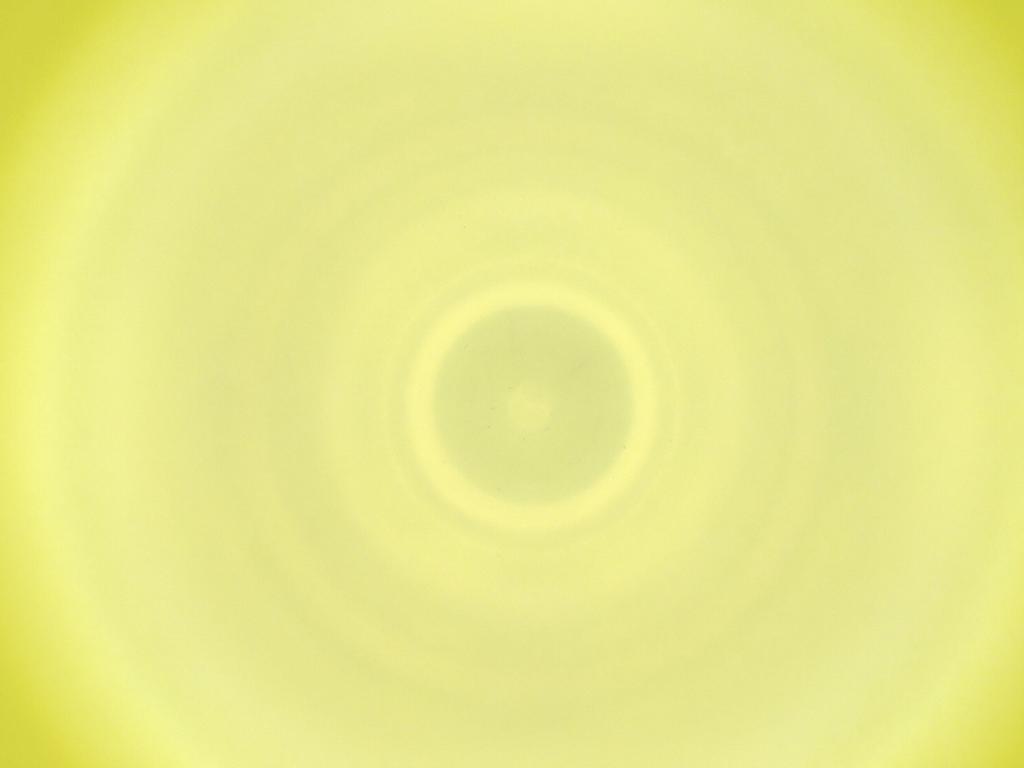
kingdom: Animalia
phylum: Arthropoda
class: Insecta
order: Diptera
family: Cecidomyiidae
